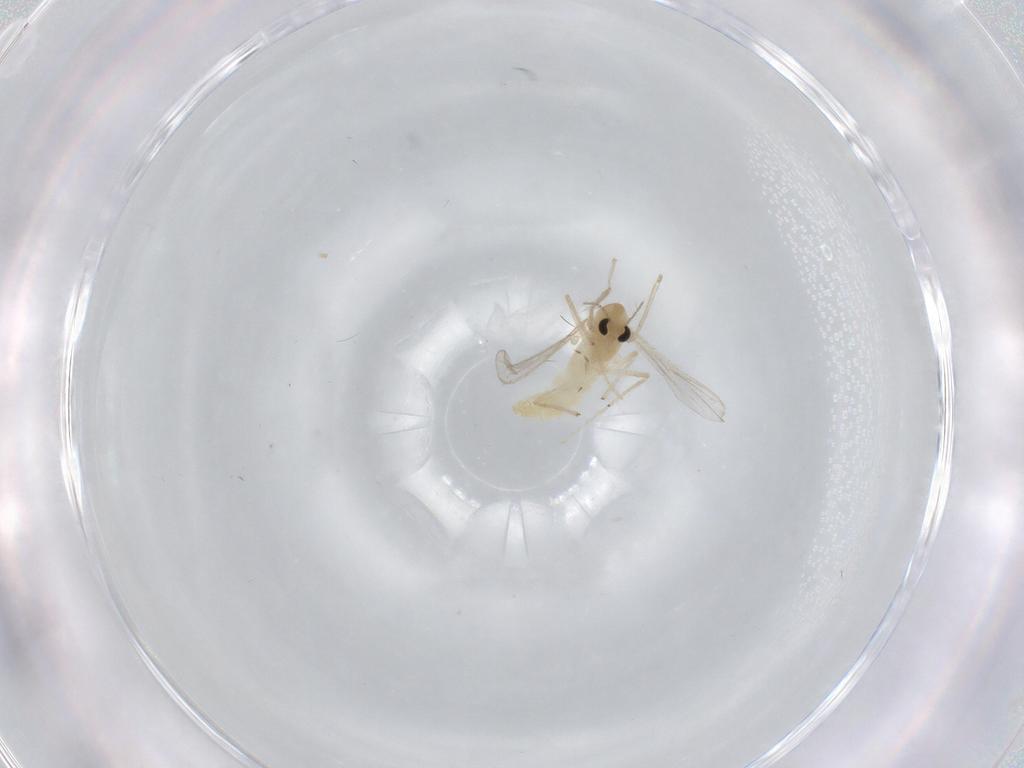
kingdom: Animalia
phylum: Arthropoda
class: Insecta
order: Diptera
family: Chironomidae
